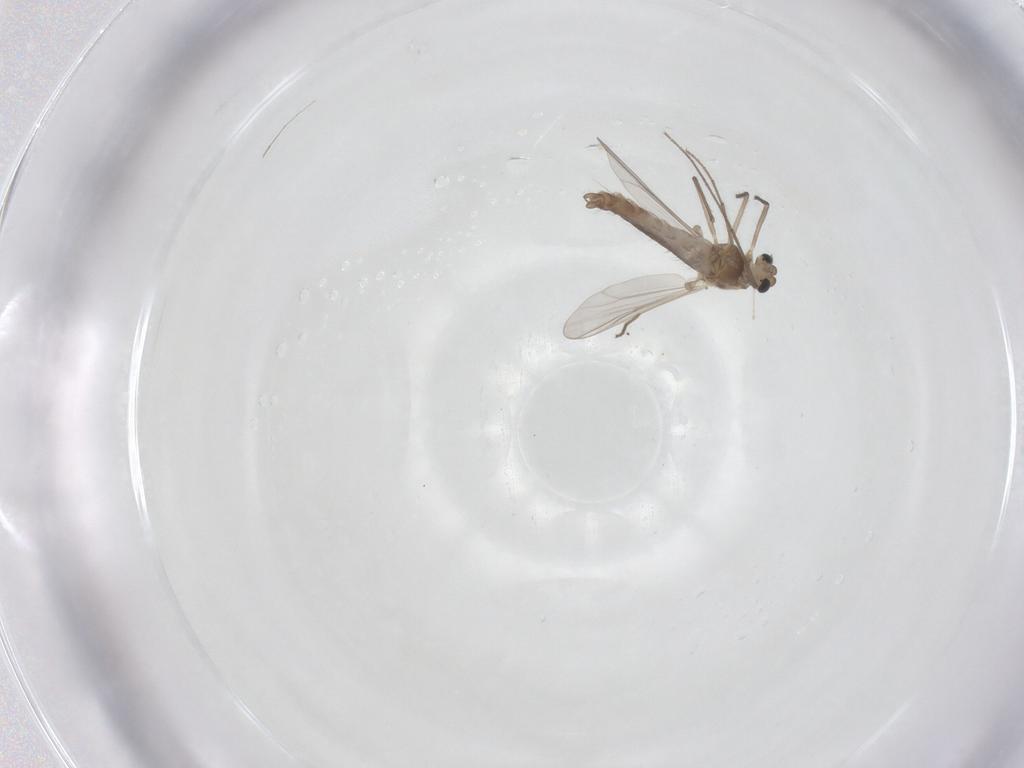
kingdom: Animalia
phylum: Arthropoda
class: Insecta
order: Diptera
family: Chironomidae
